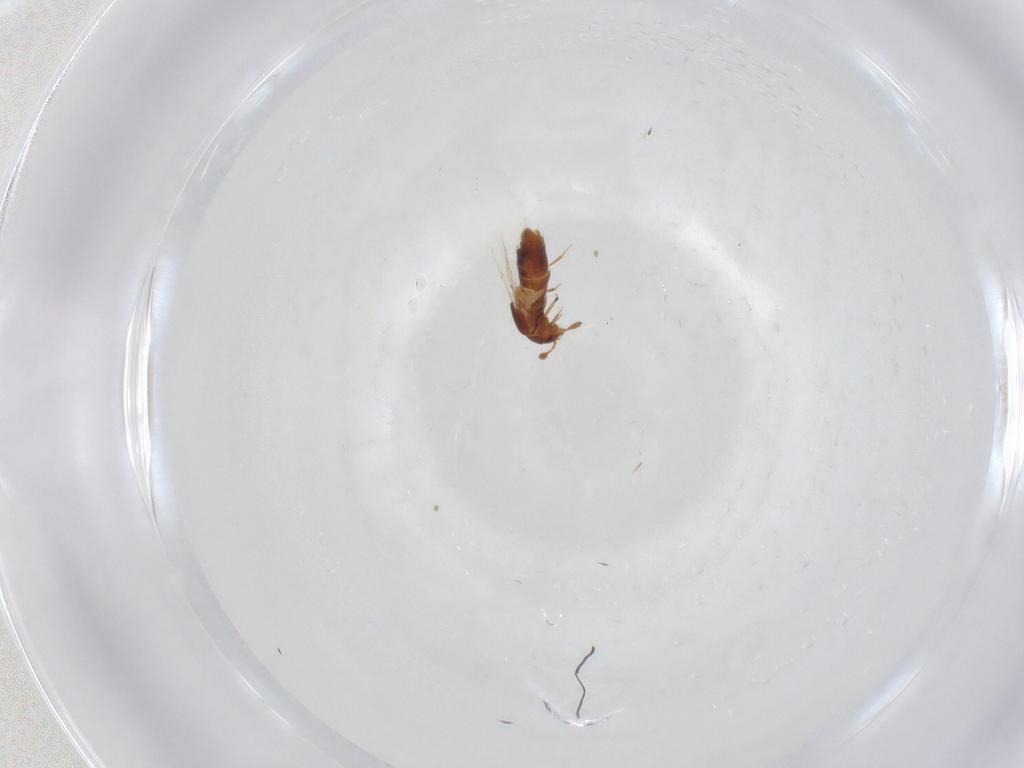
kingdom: Animalia
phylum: Arthropoda
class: Insecta
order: Coleoptera
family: Staphylinidae
